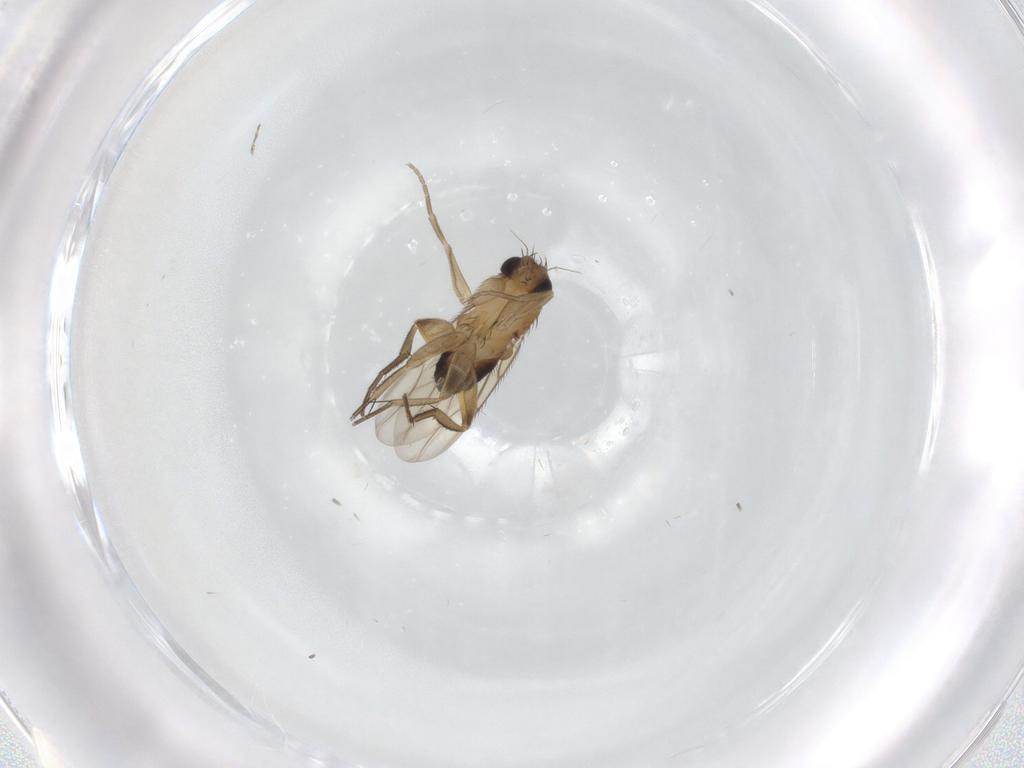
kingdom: Animalia
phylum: Arthropoda
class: Insecta
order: Diptera
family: Phoridae
